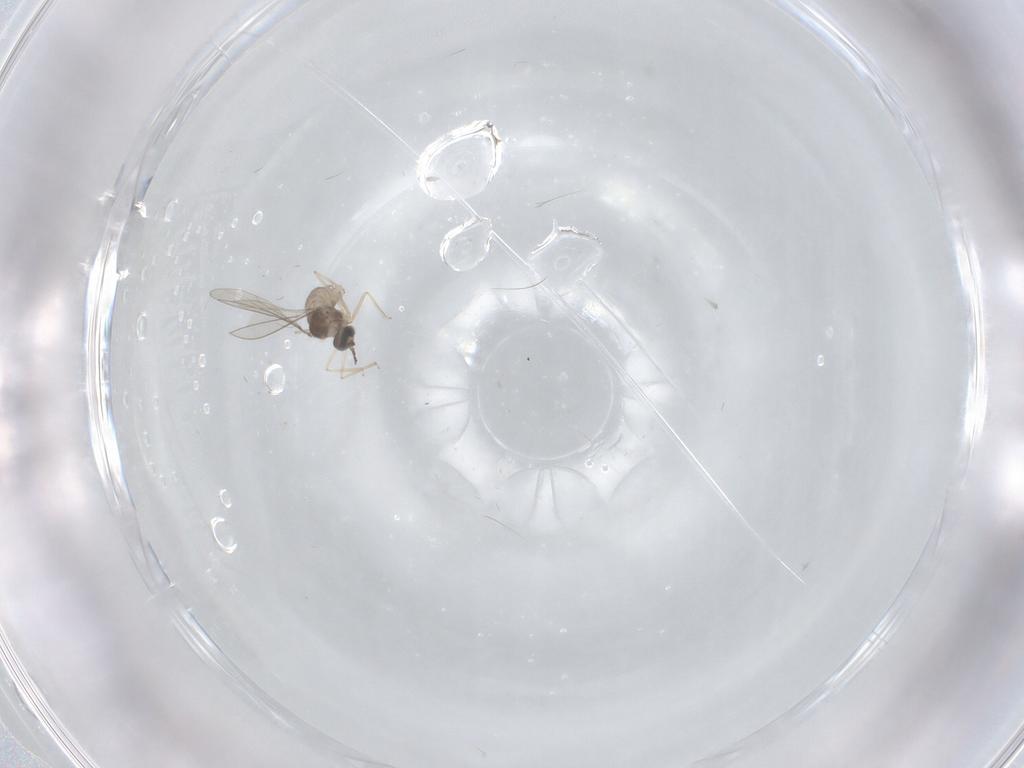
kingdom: Animalia
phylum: Arthropoda
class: Insecta
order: Diptera
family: Cecidomyiidae
